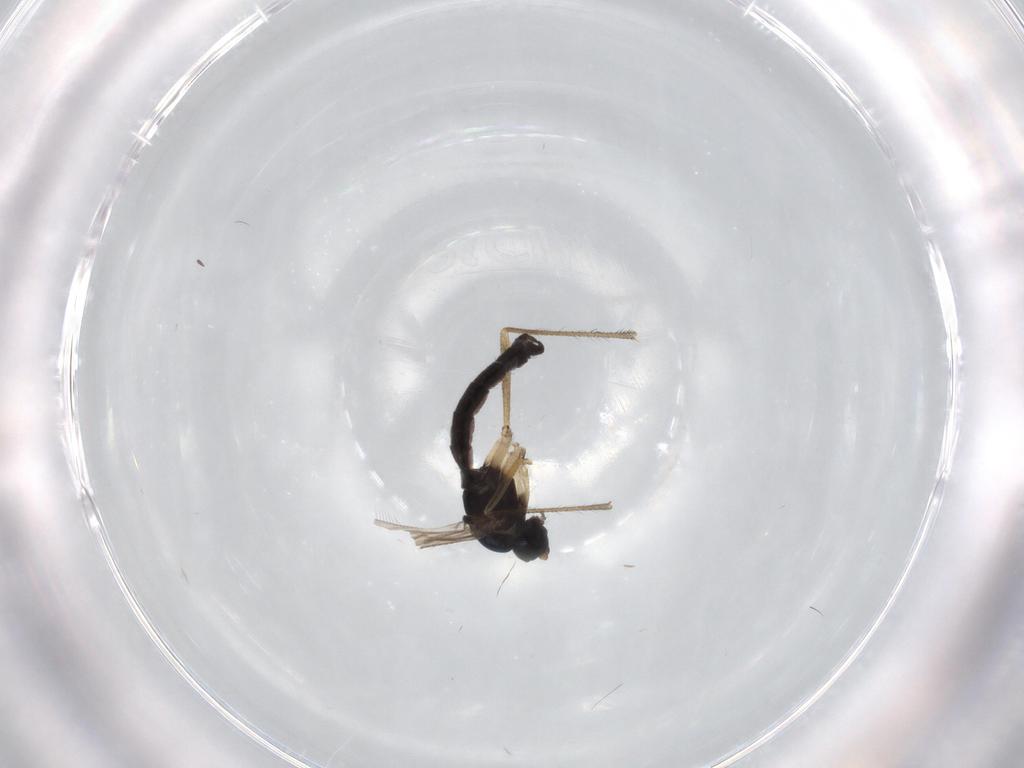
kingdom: Animalia
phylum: Arthropoda
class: Insecta
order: Diptera
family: Sciaridae
